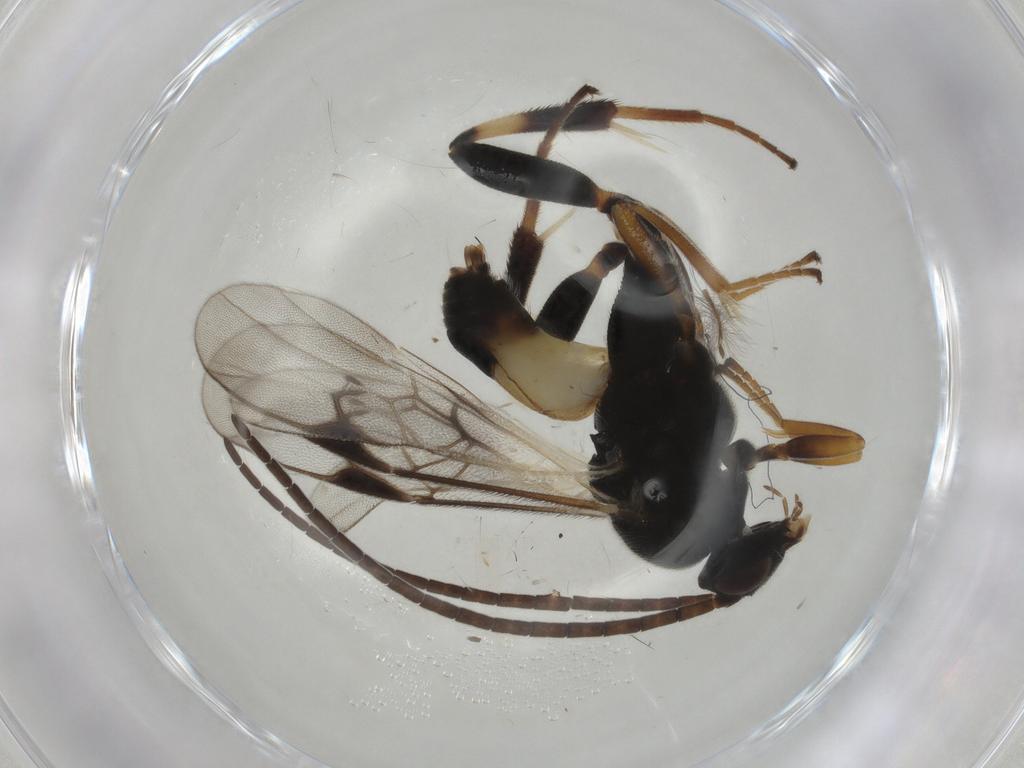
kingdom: Animalia
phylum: Arthropoda
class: Insecta
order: Hymenoptera
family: Braconidae
